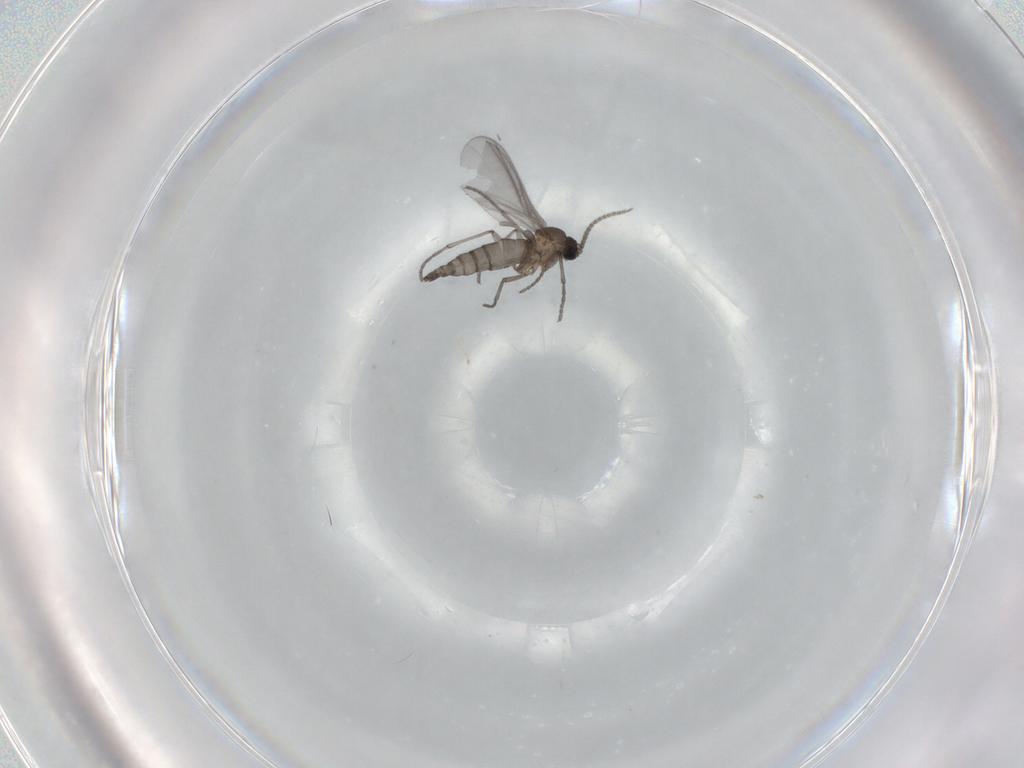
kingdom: Animalia
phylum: Arthropoda
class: Insecta
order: Diptera
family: Sciaridae
